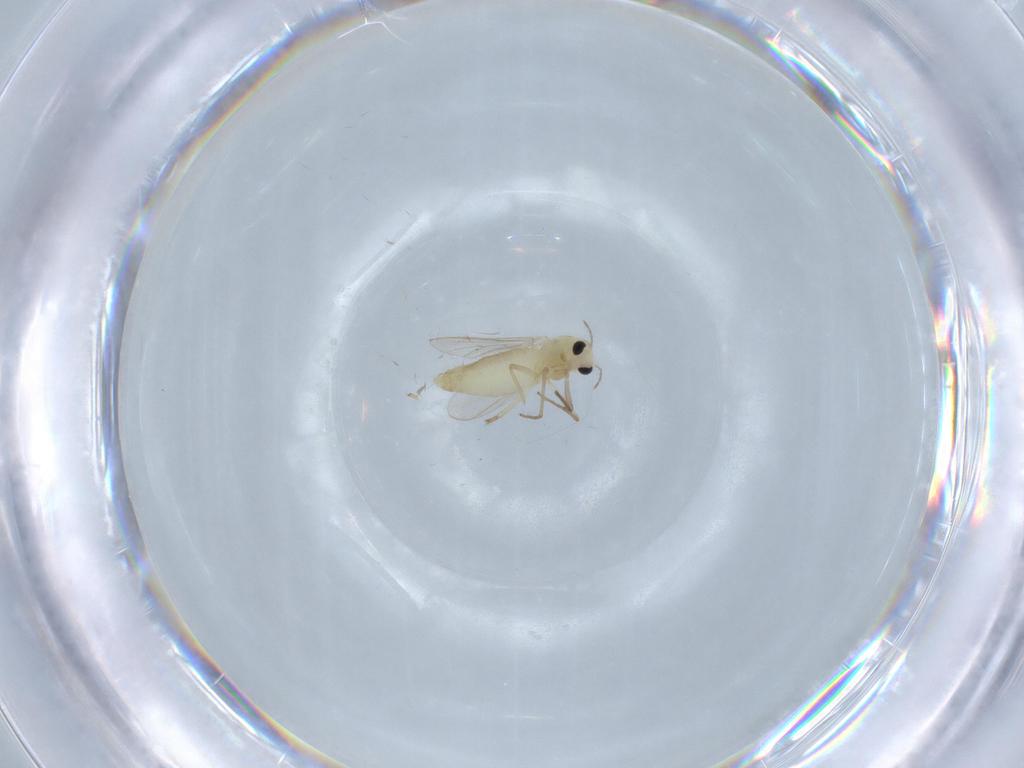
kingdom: Animalia
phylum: Arthropoda
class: Insecta
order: Diptera
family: Chironomidae
